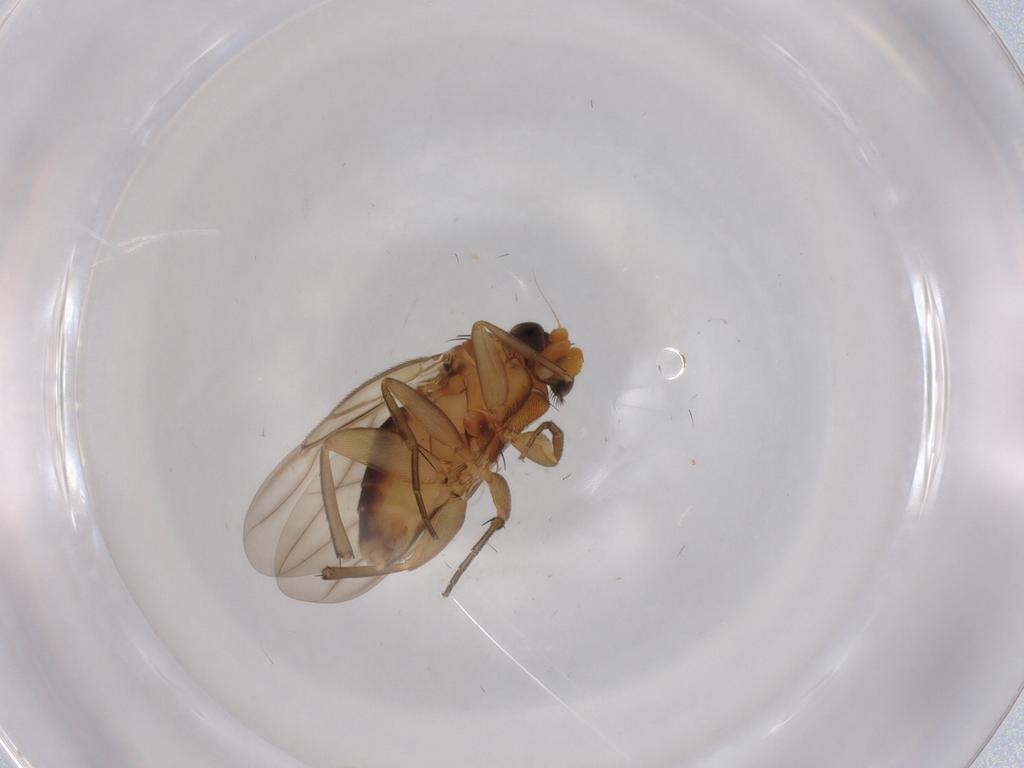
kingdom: Animalia
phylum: Arthropoda
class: Insecta
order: Diptera
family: Phoridae
